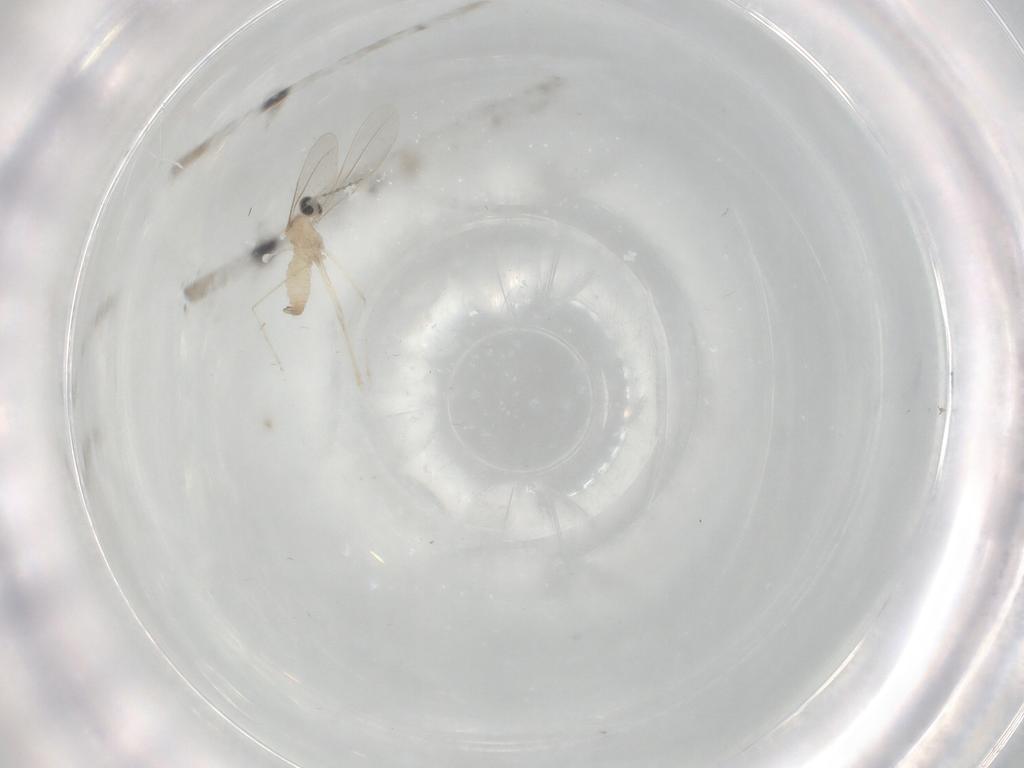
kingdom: Animalia
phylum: Arthropoda
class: Insecta
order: Diptera
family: Cecidomyiidae
